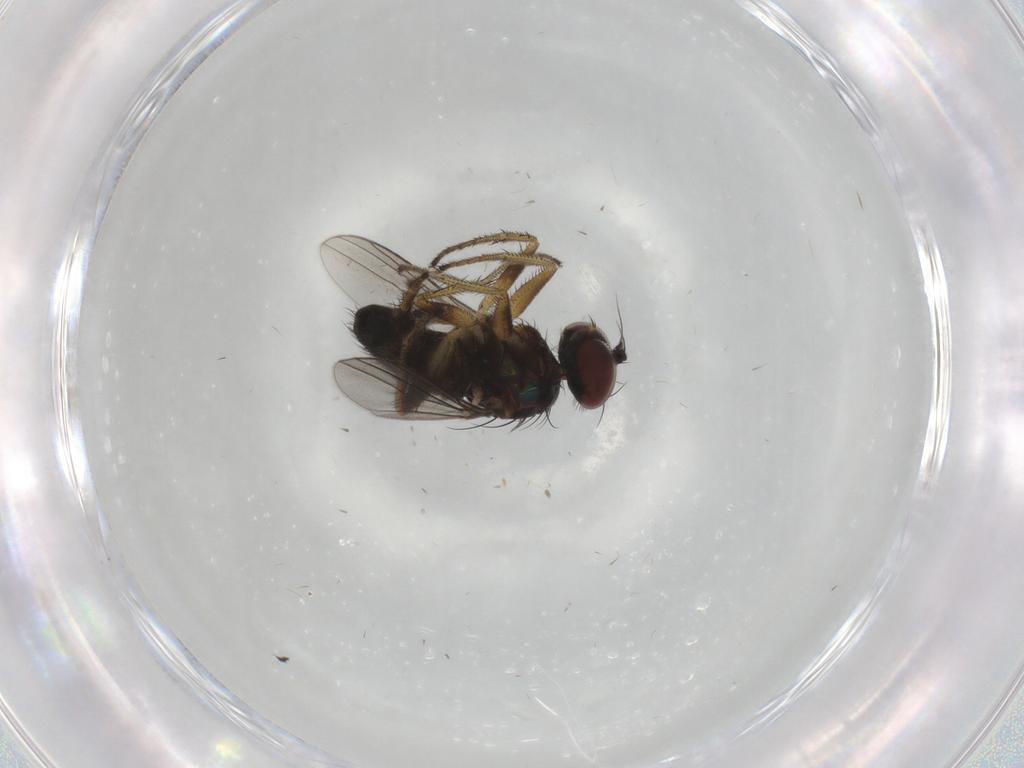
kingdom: Animalia
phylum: Arthropoda
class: Insecta
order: Diptera
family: Dolichopodidae
